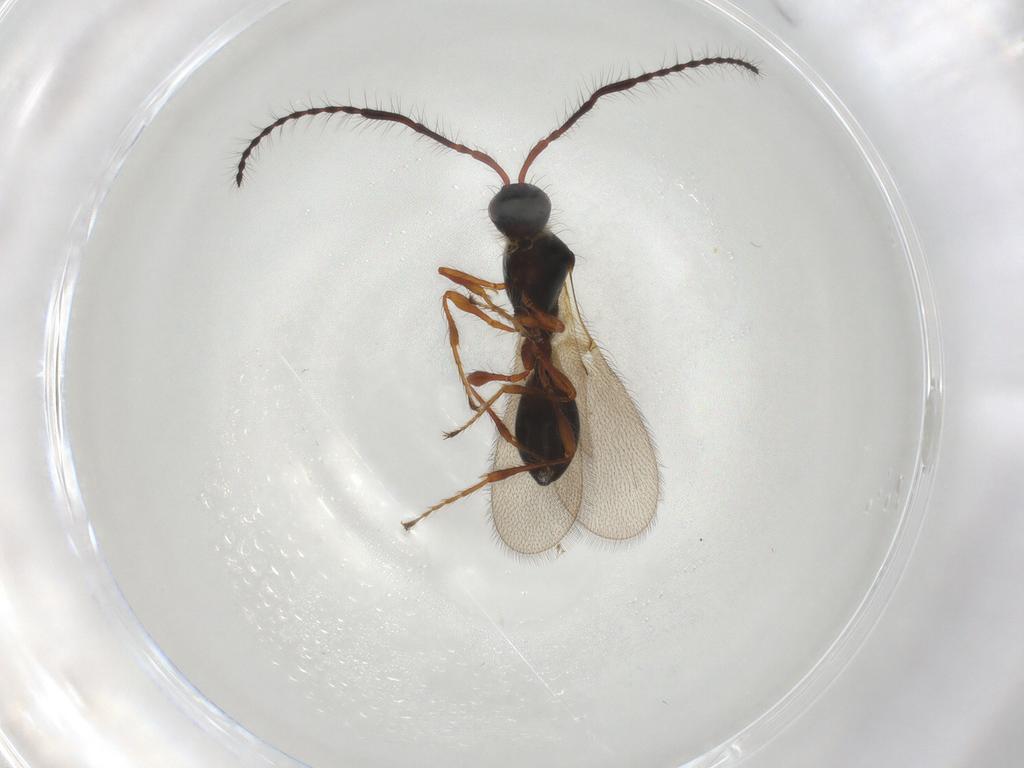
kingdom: Animalia
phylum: Arthropoda
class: Insecta
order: Hymenoptera
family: Diapriidae
